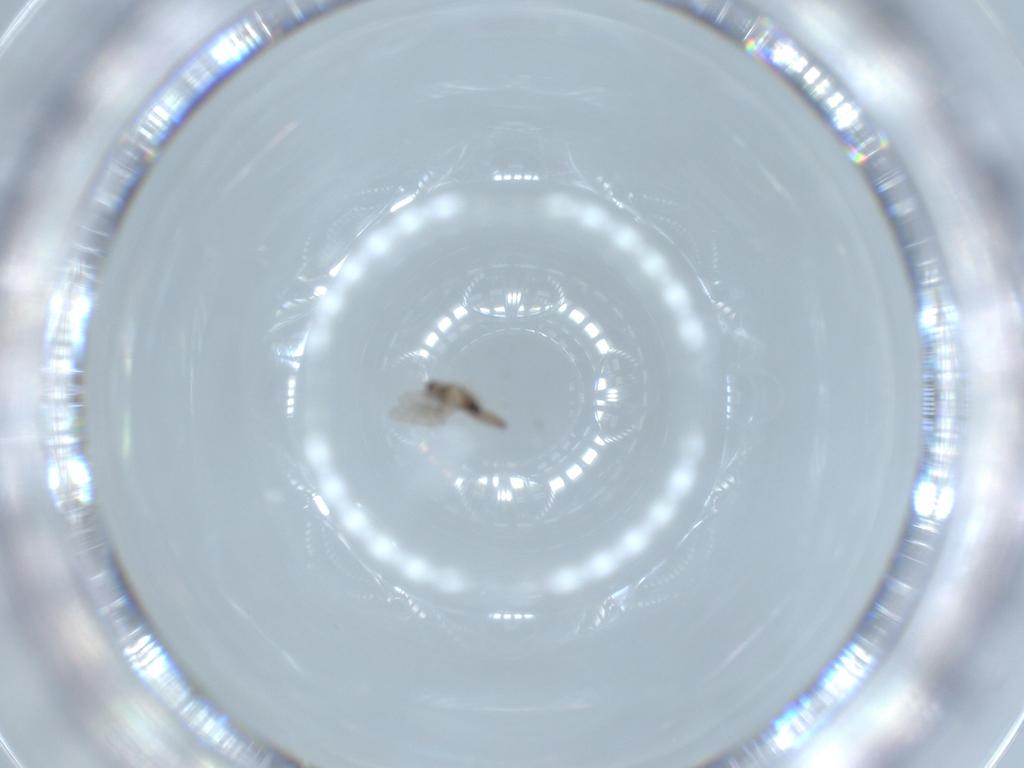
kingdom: Animalia
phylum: Arthropoda
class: Insecta
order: Diptera
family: Cecidomyiidae
